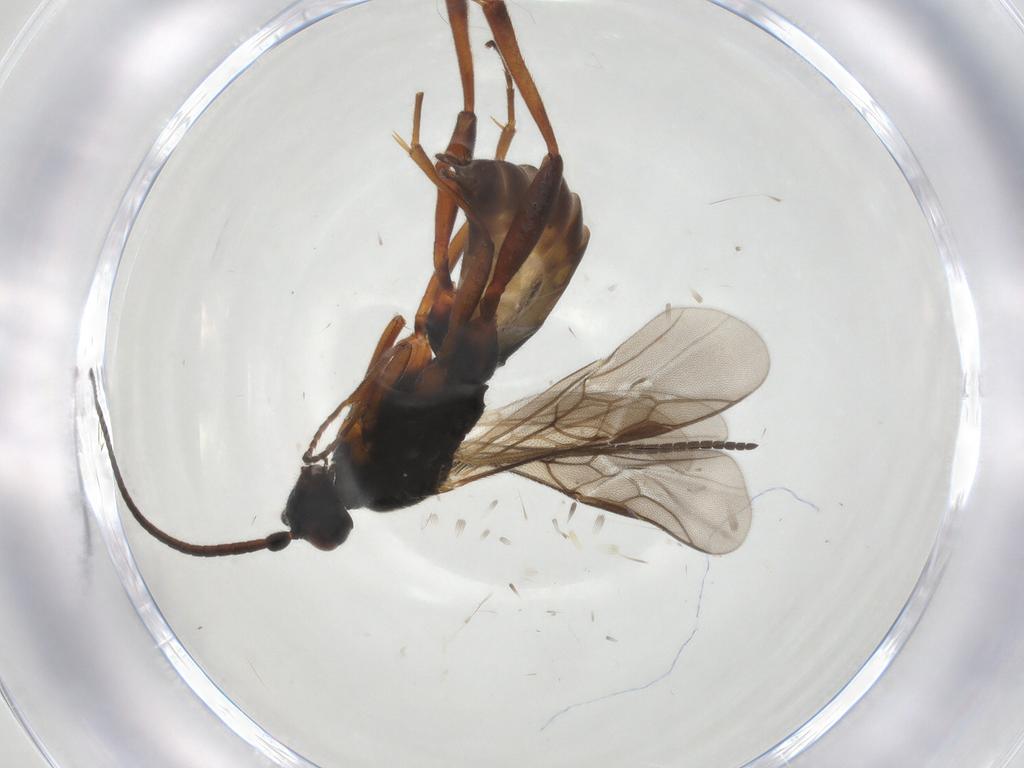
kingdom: Animalia
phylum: Arthropoda
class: Insecta
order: Hymenoptera
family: Braconidae
